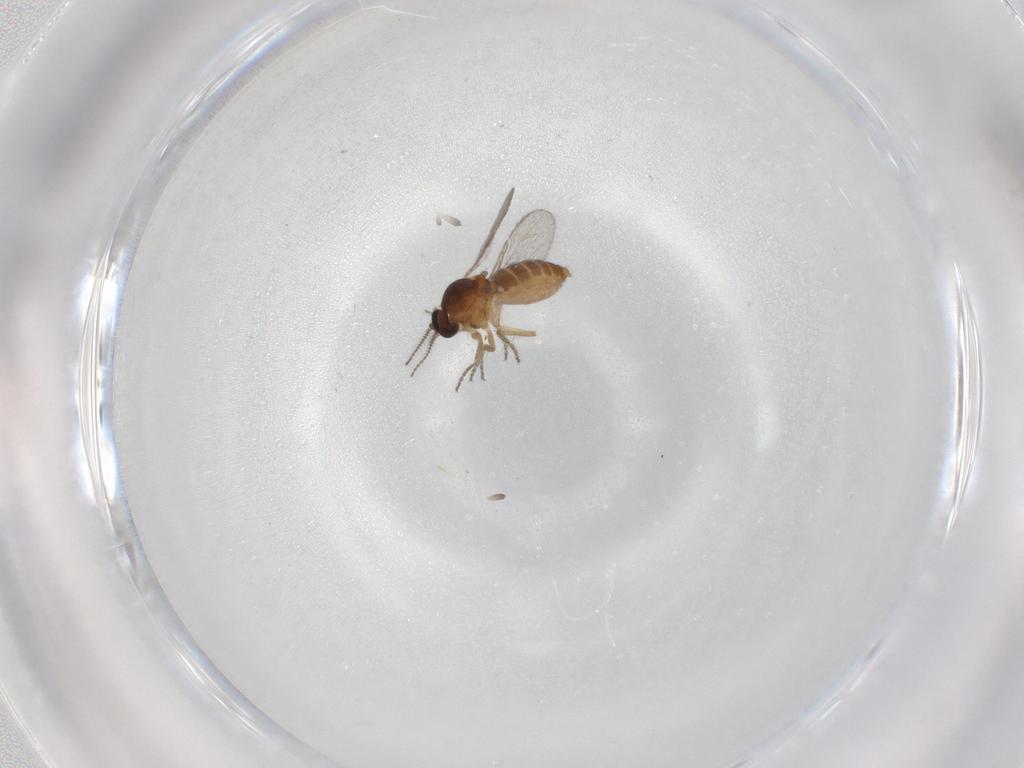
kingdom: Animalia
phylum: Arthropoda
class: Insecta
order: Diptera
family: Ceratopogonidae
